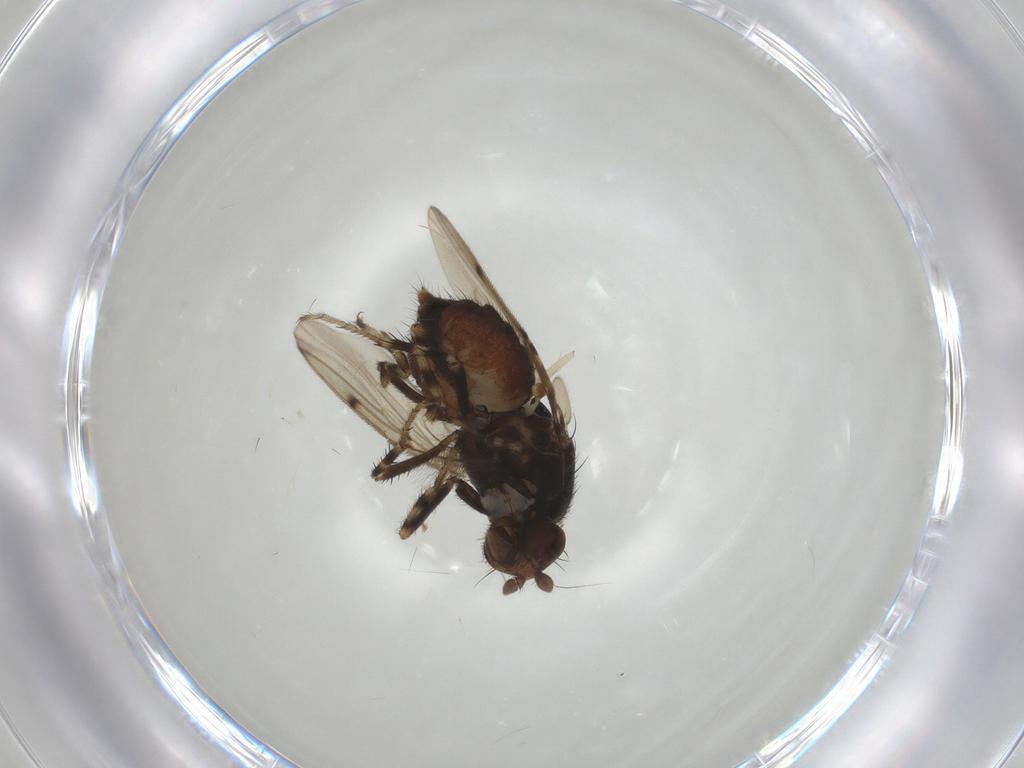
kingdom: Animalia
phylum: Arthropoda
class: Insecta
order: Diptera
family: Sphaeroceridae
